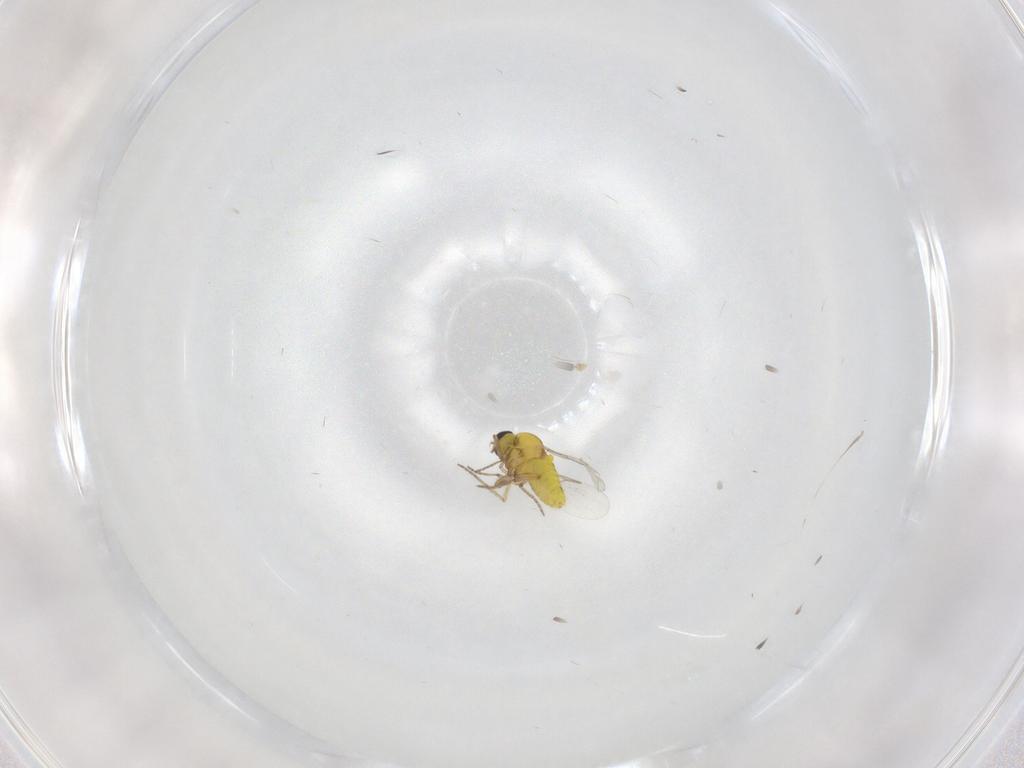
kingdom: Animalia
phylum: Arthropoda
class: Insecta
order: Diptera
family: Ceratopogonidae
